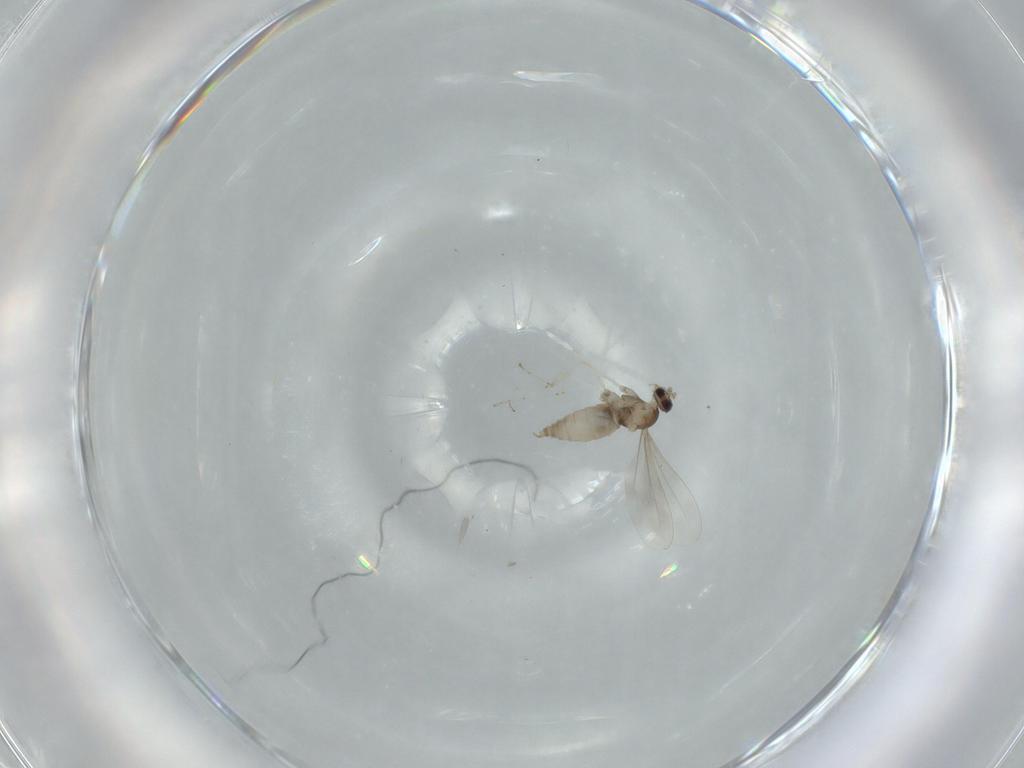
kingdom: Animalia
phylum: Arthropoda
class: Insecta
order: Diptera
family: Cecidomyiidae
